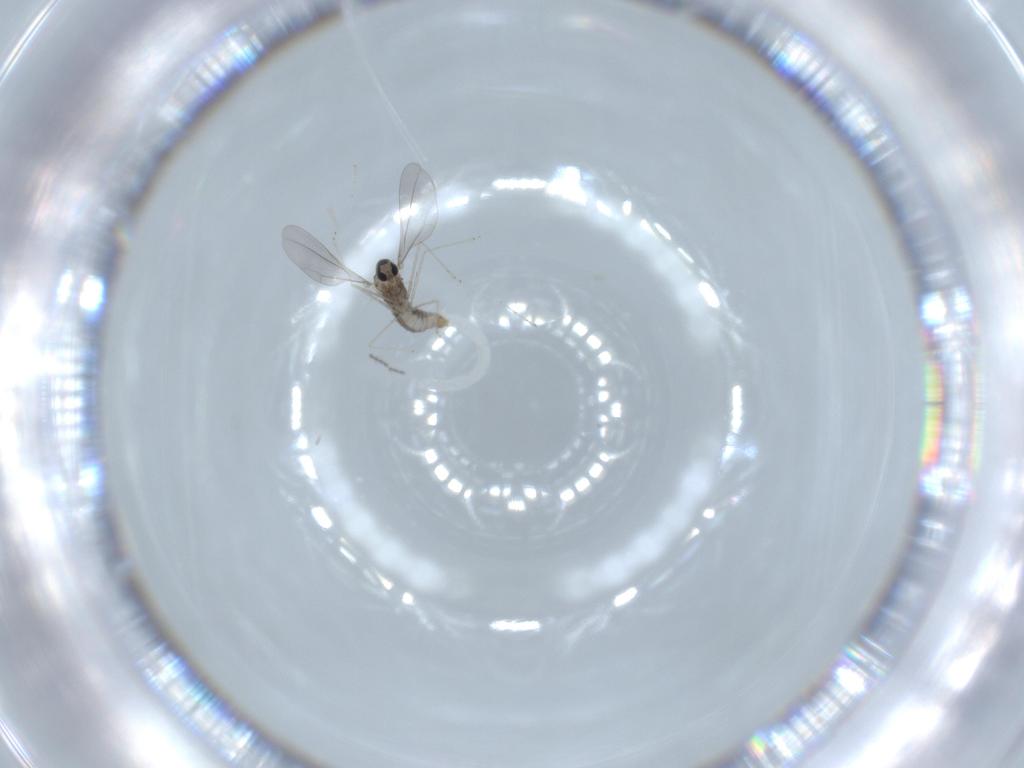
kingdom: Animalia
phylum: Arthropoda
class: Insecta
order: Diptera
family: Cecidomyiidae
